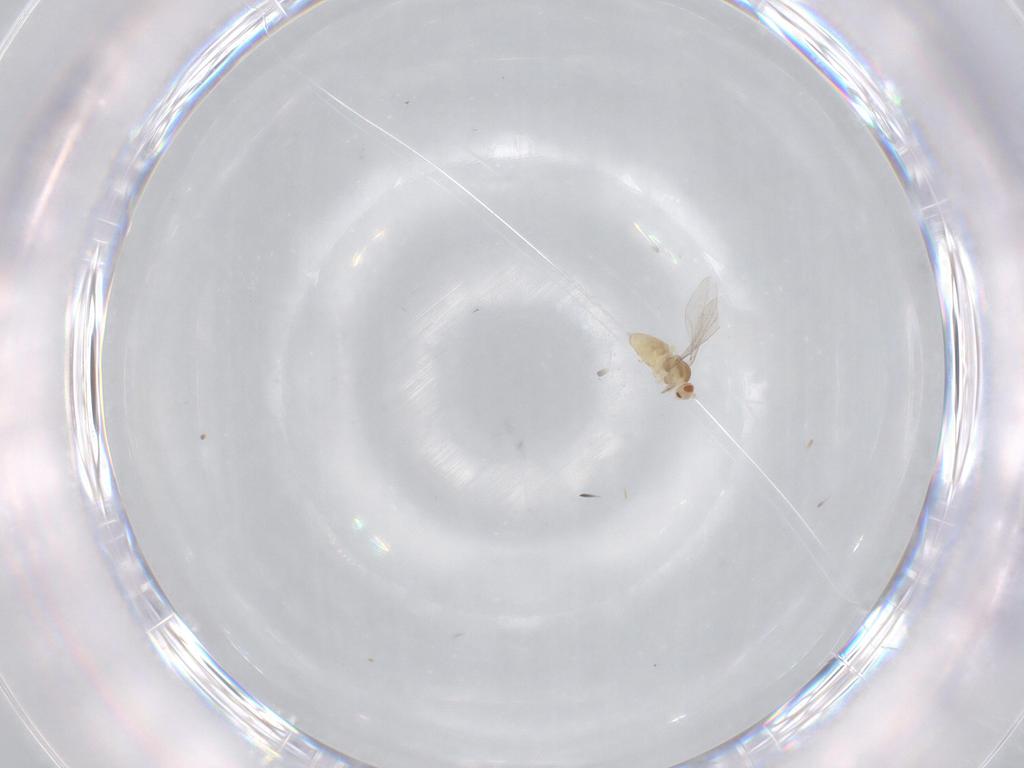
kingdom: Animalia
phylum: Arthropoda
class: Insecta
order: Diptera
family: Cecidomyiidae
